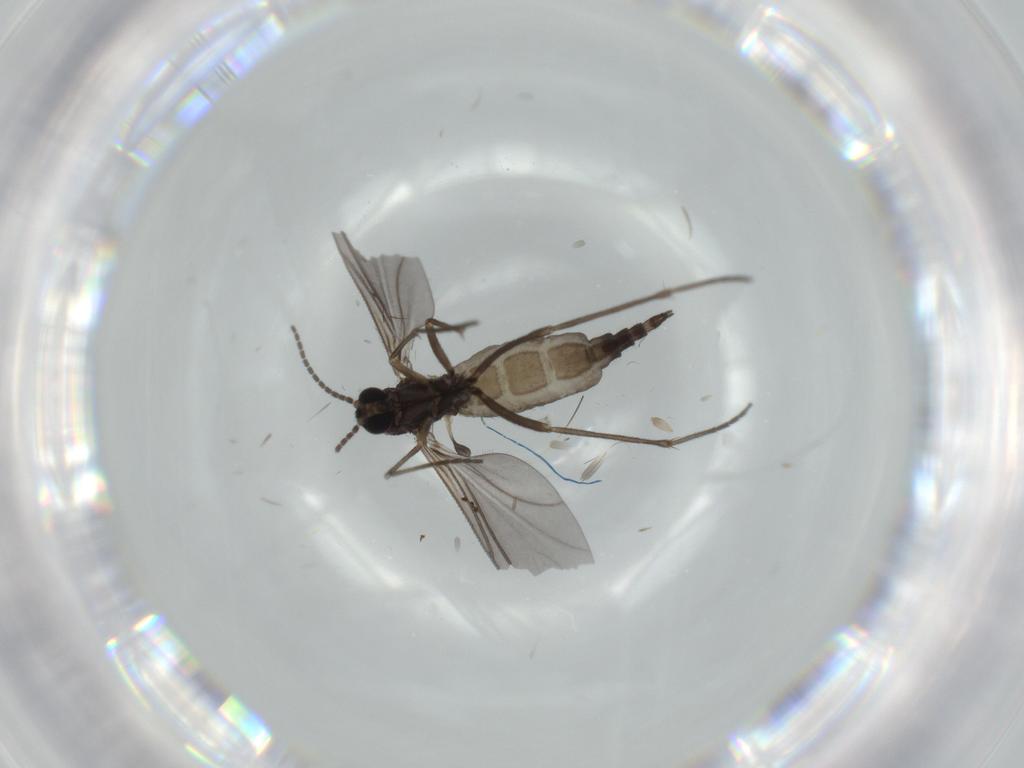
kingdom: Animalia
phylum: Arthropoda
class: Insecta
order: Diptera
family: Sciaridae
